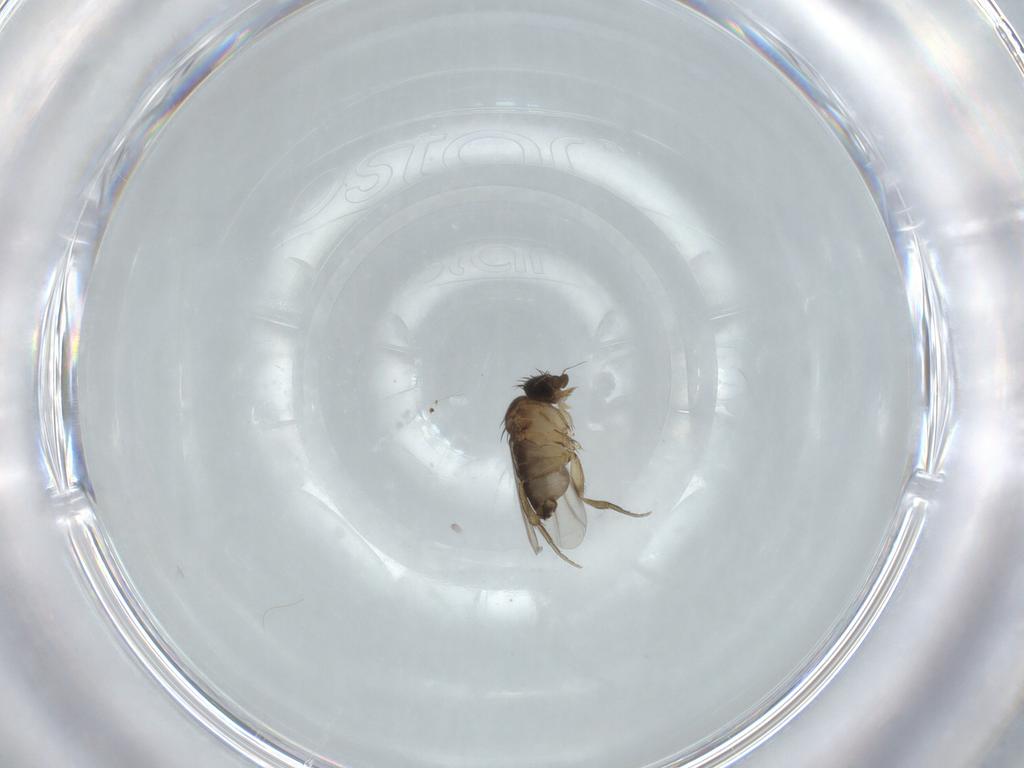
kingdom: Animalia
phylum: Arthropoda
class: Insecta
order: Diptera
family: Phoridae
